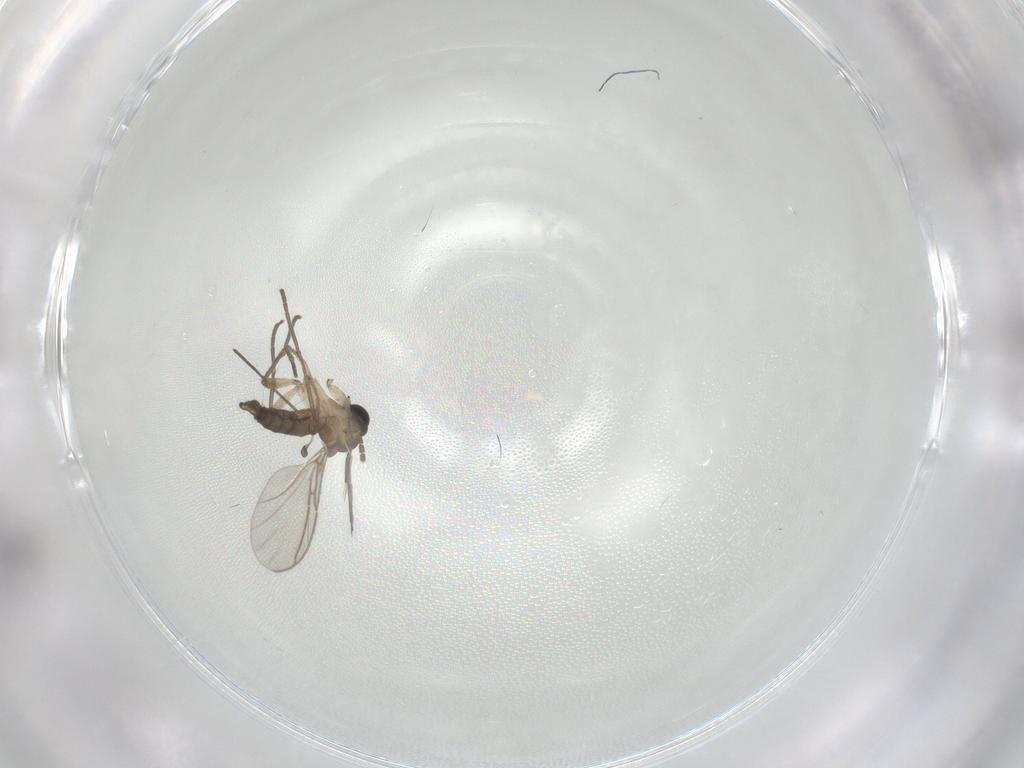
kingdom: Animalia
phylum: Arthropoda
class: Insecta
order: Diptera
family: Sciaridae
